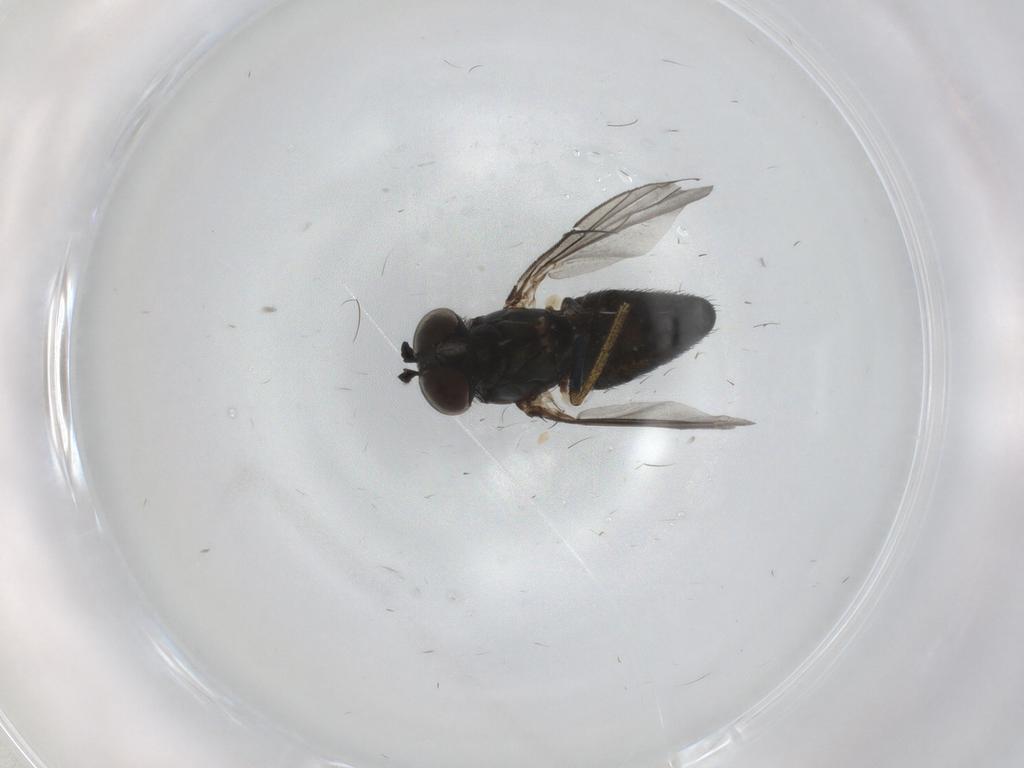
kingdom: Animalia
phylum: Arthropoda
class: Insecta
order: Diptera
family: Dolichopodidae
